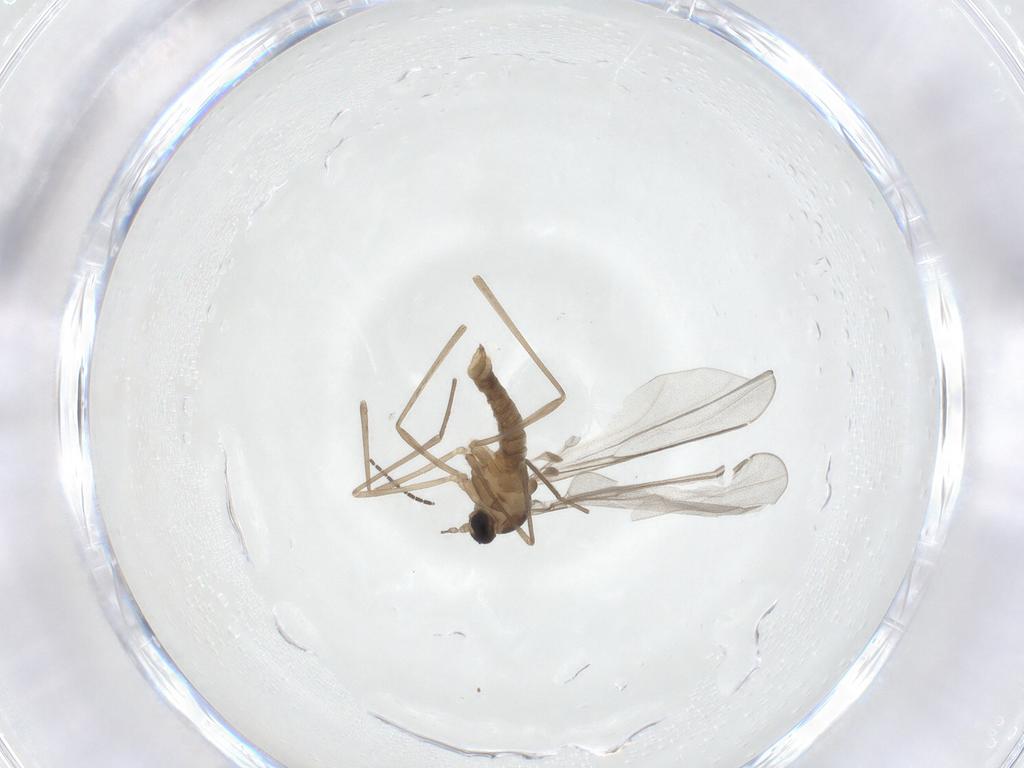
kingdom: Animalia
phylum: Arthropoda
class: Insecta
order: Diptera
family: Cecidomyiidae
